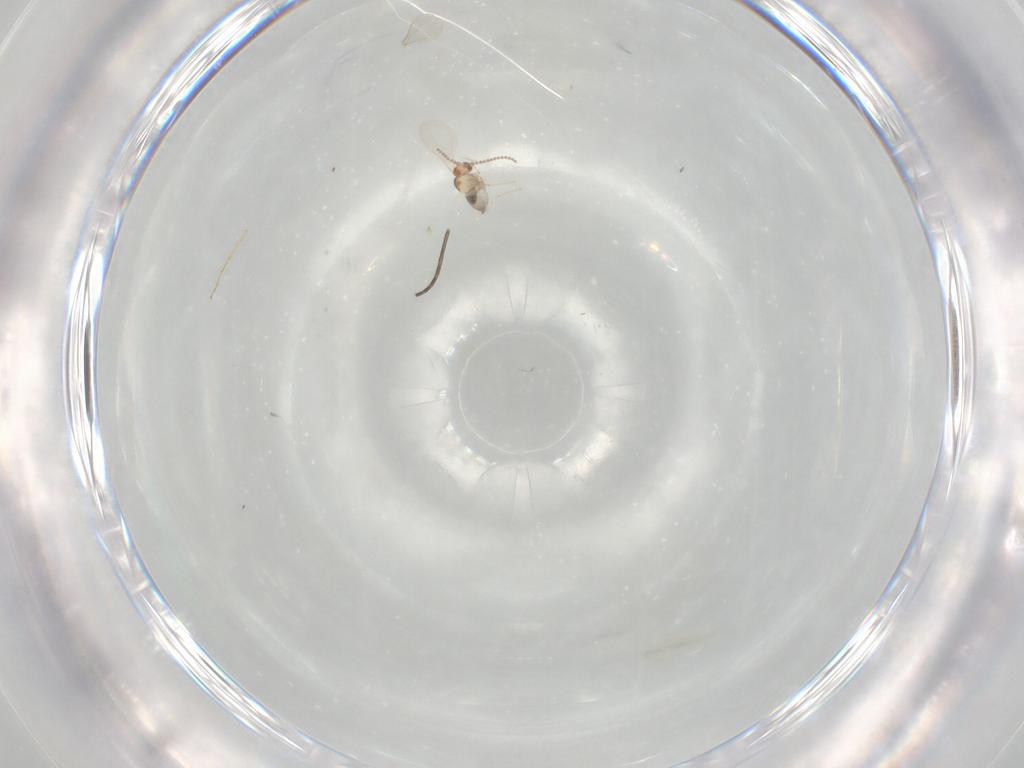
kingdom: Animalia
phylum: Arthropoda
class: Insecta
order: Diptera
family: Cecidomyiidae
